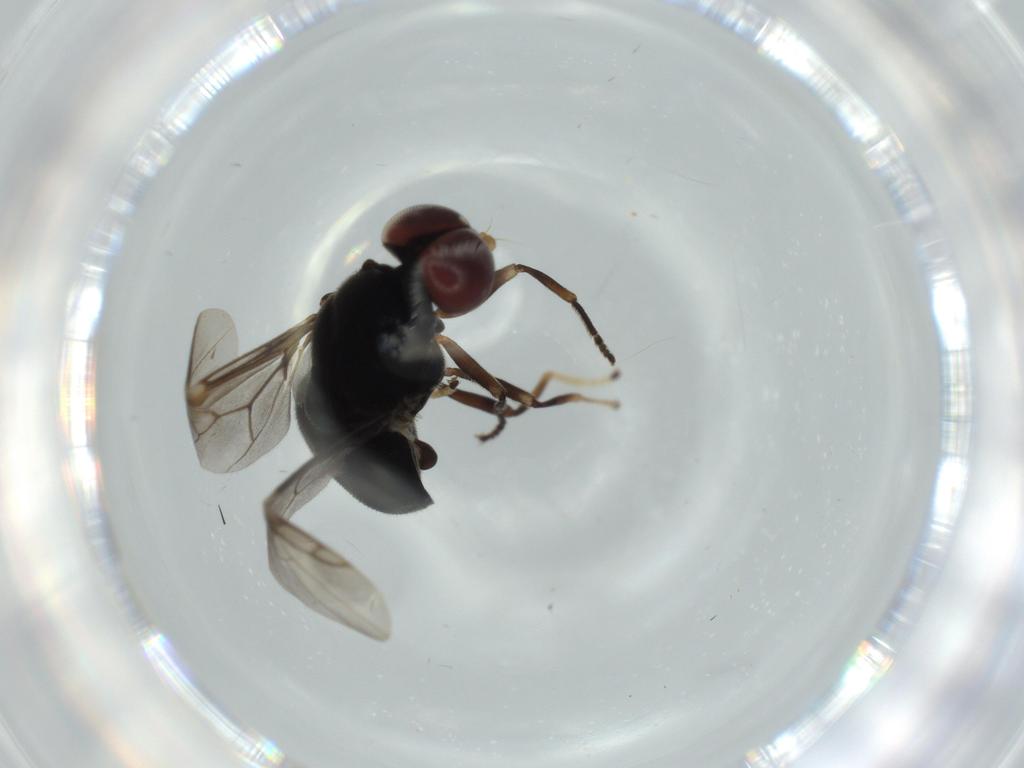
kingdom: Animalia
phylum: Arthropoda
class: Insecta
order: Diptera
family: Stratiomyidae
